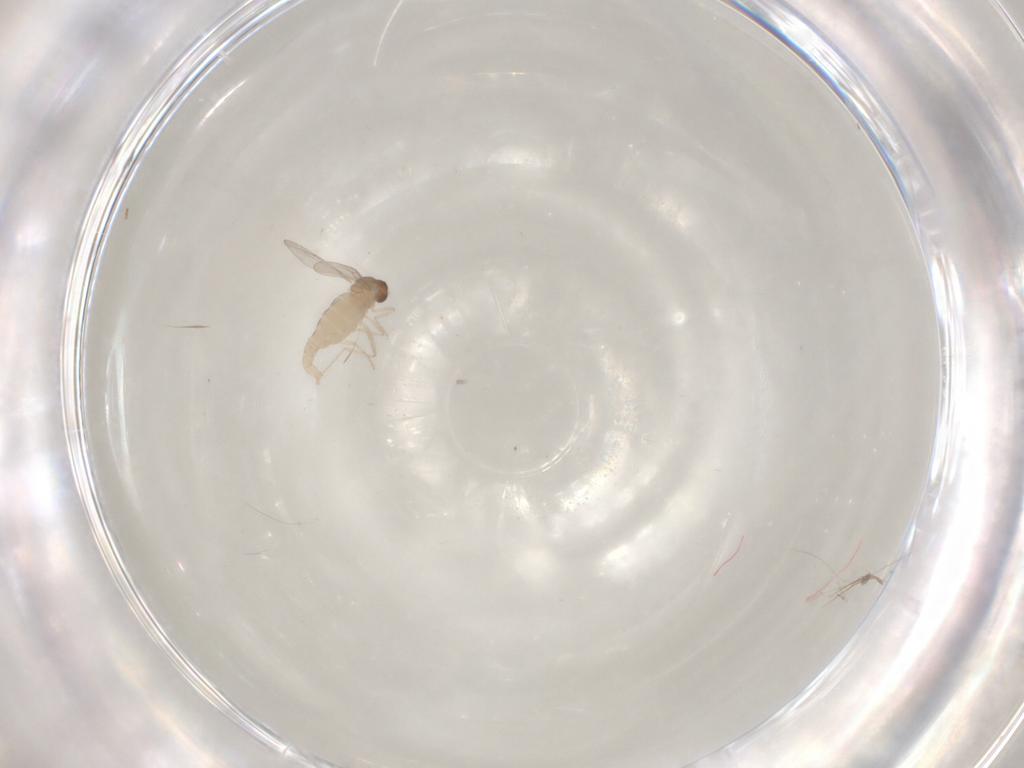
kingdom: Animalia
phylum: Arthropoda
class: Insecta
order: Diptera
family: Cecidomyiidae
